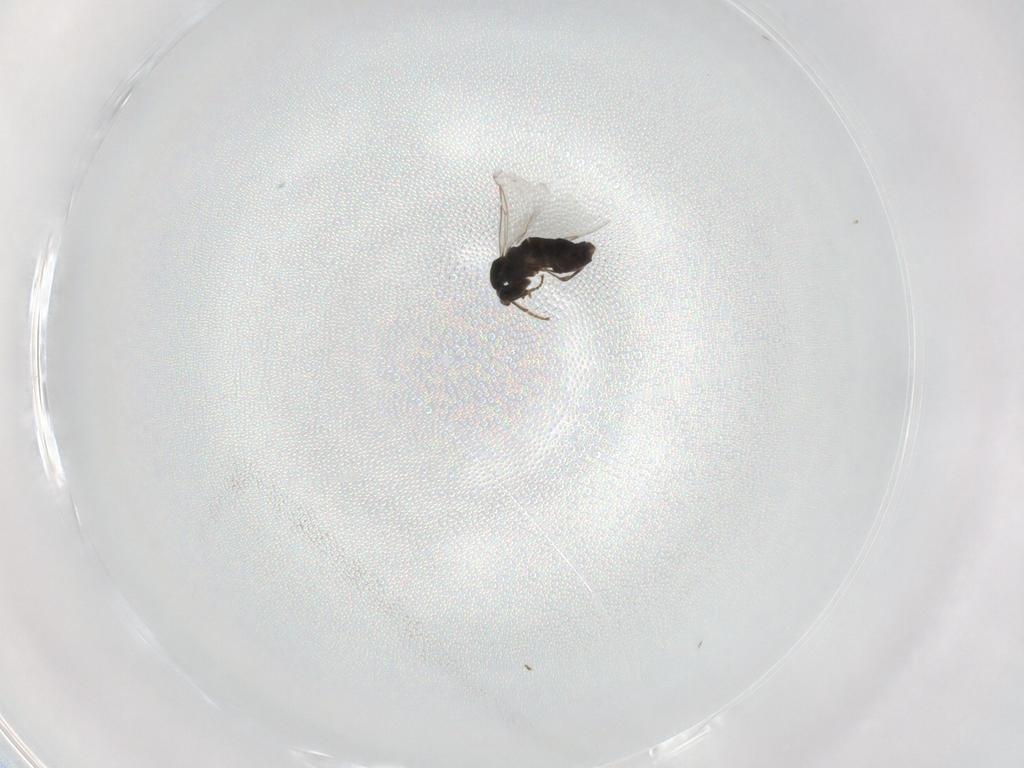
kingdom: Animalia
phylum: Arthropoda
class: Insecta
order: Diptera
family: Scatopsidae
